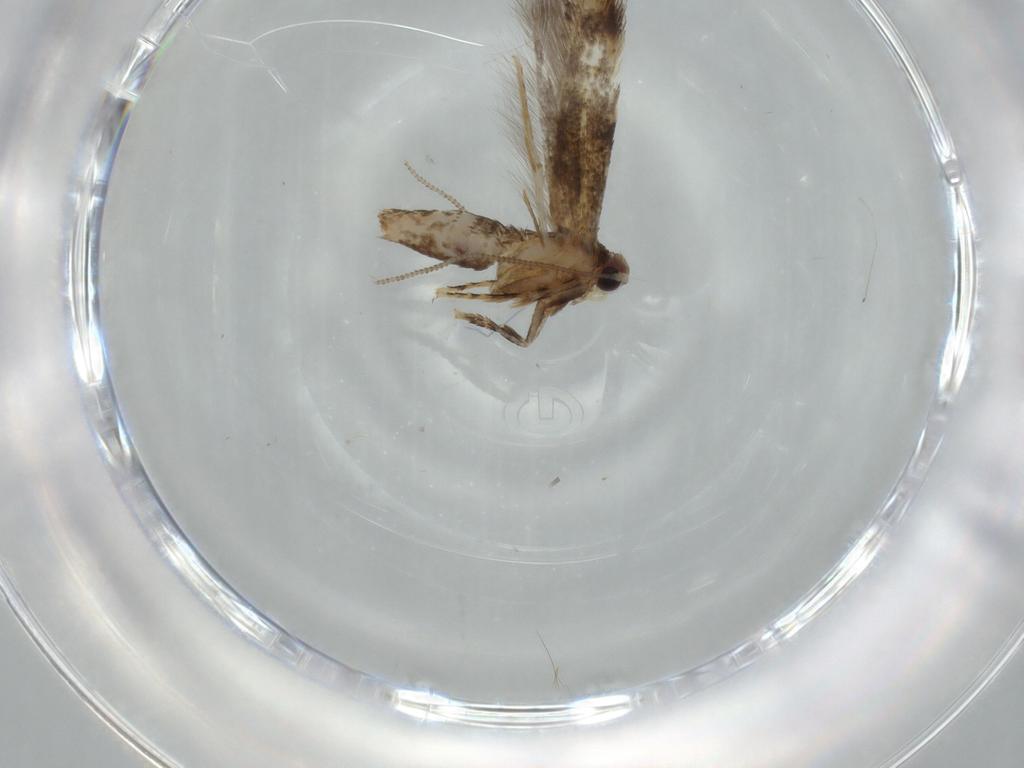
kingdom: Animalia
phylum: Arthropoda
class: Insecta
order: Lepidoptera
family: Tineidae
